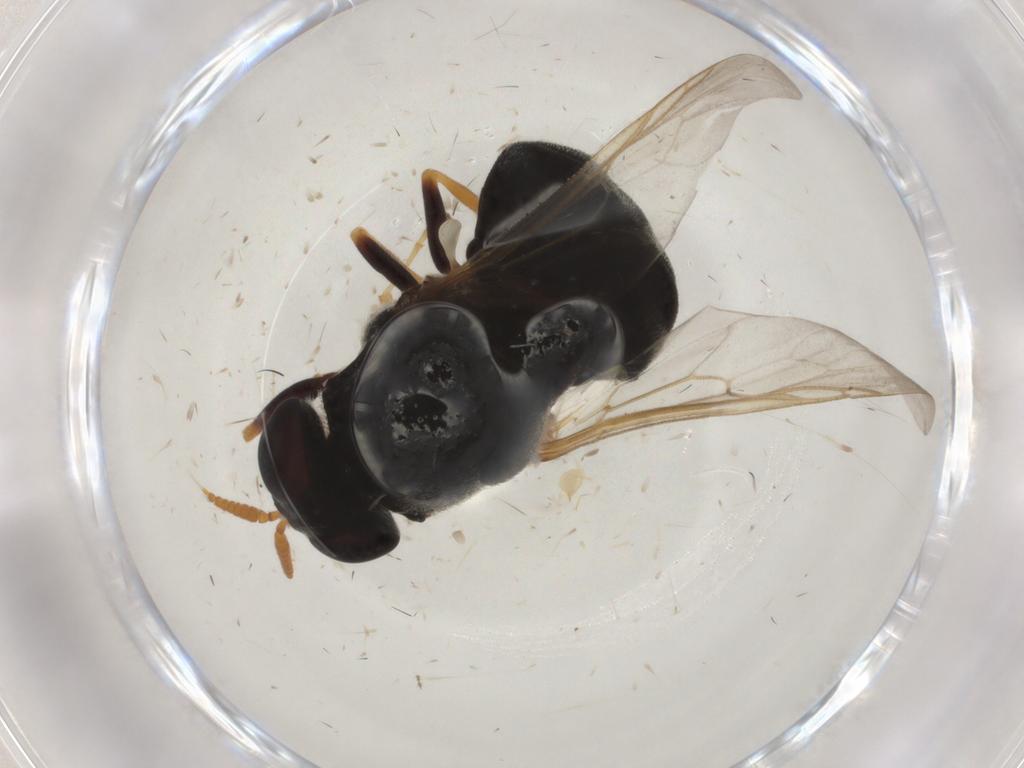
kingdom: Animalia
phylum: Arthropoda
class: Insecta
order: Diptera
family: Stratiomyidae
